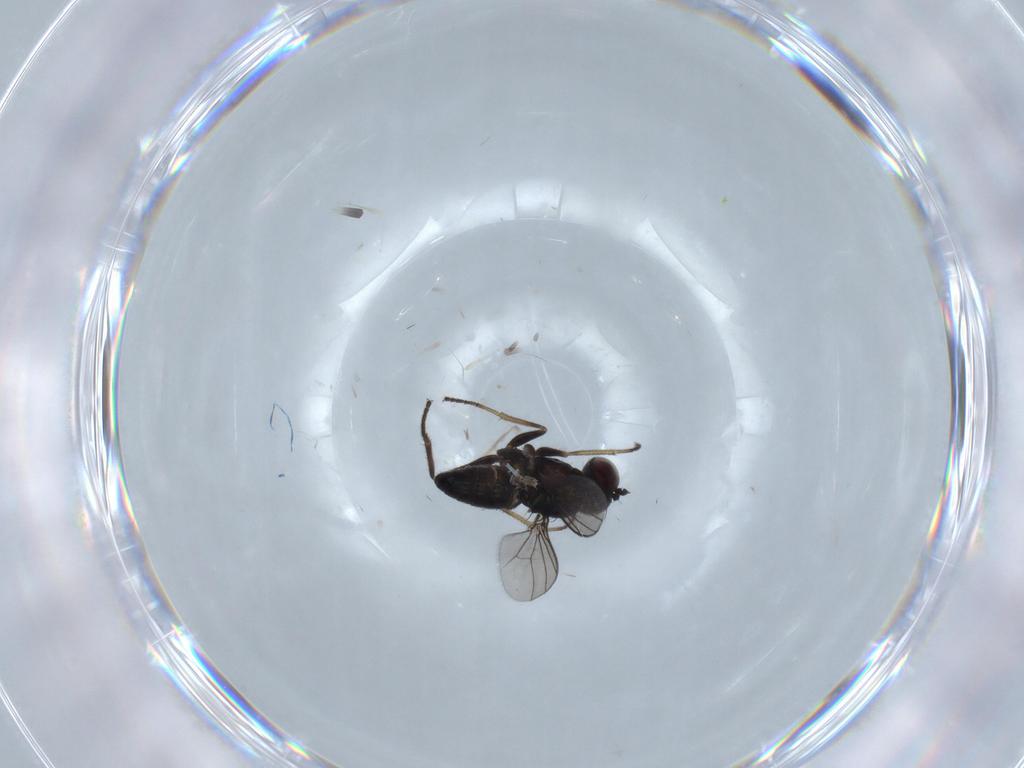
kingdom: Animalia
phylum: Arthropoda
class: Insecta
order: Diptera
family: Dolichopodidae
